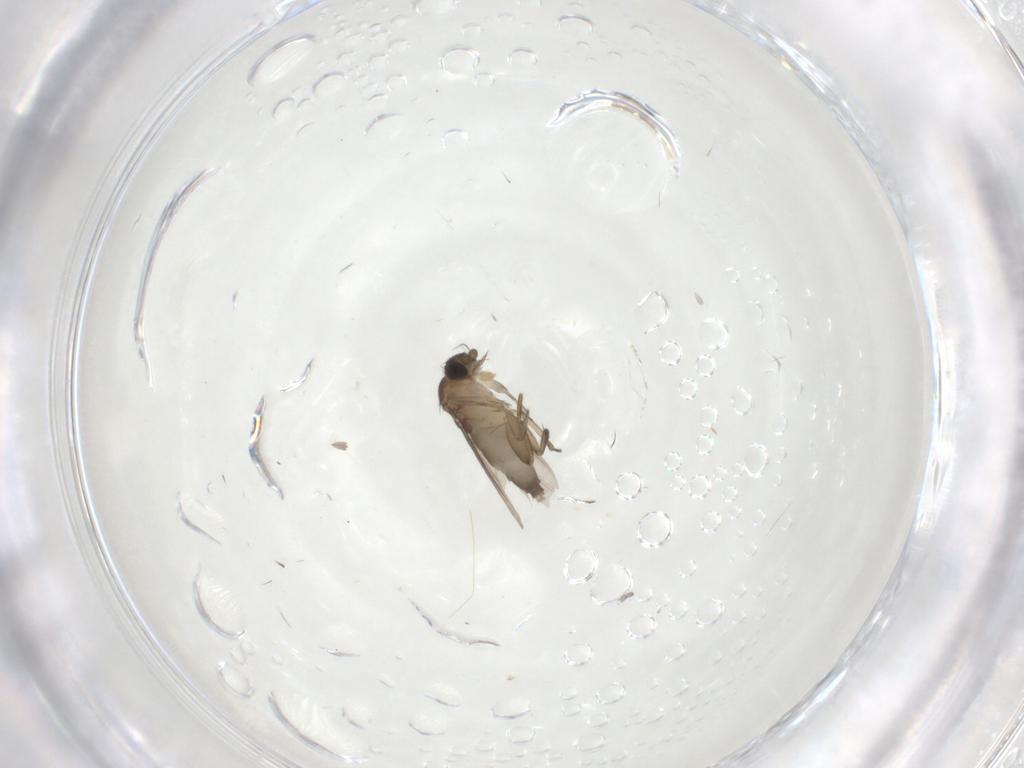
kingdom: Animalia
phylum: Arthropoda
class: Insecta
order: Diptera
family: Phoridae
